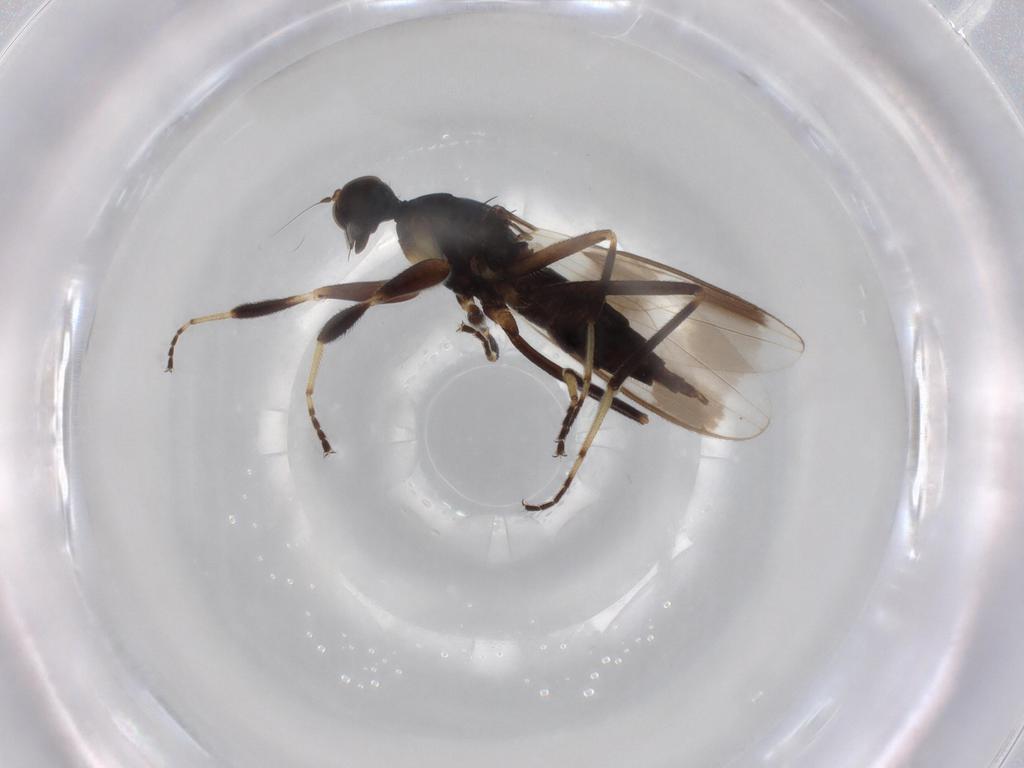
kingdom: Animalia
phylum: Arthropoda
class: Insecta
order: Diptera
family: Hybotidae
